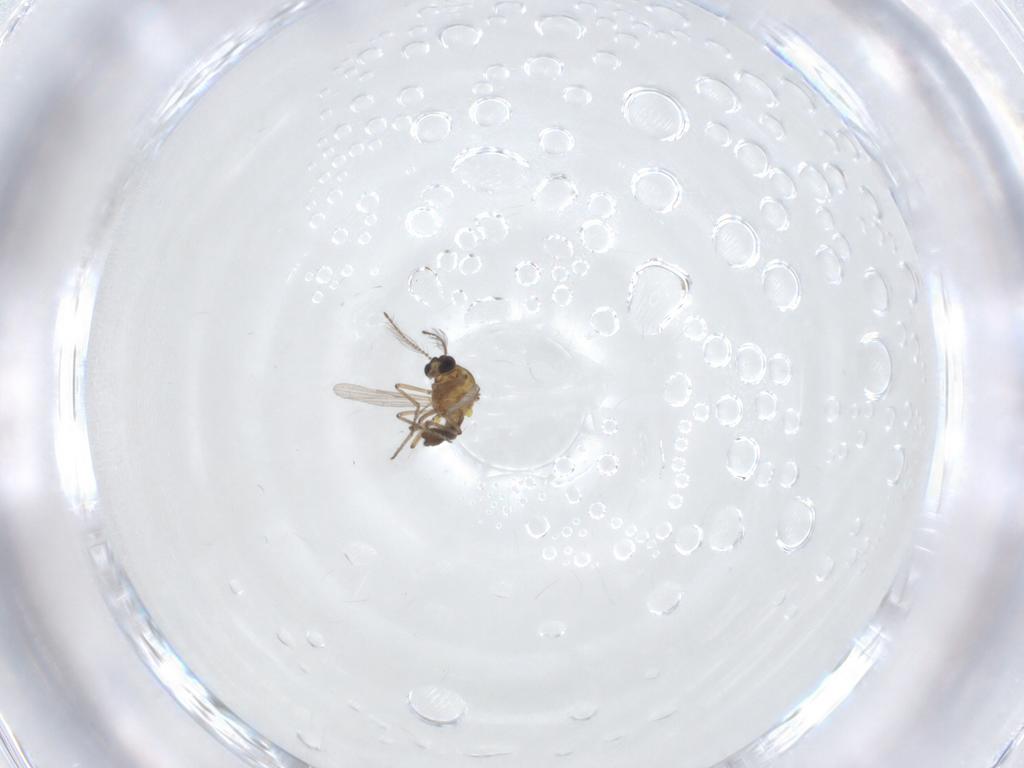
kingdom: Animalia
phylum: Arthropoda
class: Insecta
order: Diptera
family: Ceratopogonidae
